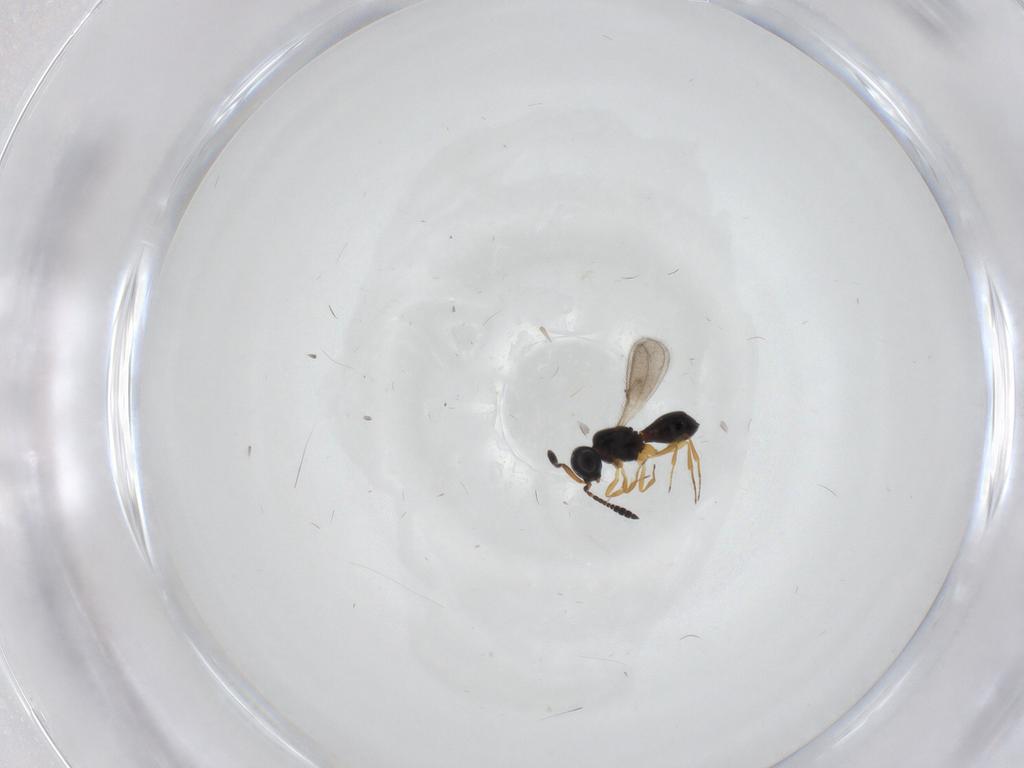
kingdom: Animalia
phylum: Arthropoda
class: Insecta
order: Hymenoptera
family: Scelionidae
